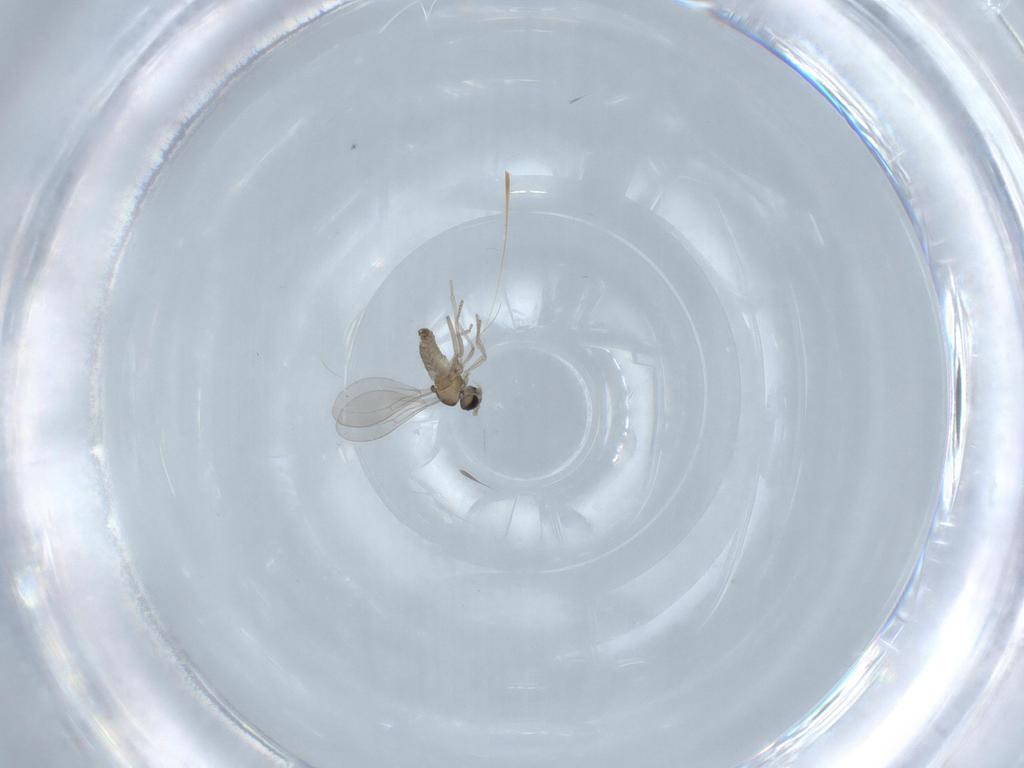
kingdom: Animalia
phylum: Arthropoda
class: Insecta
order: Diptera
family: Sciaridae
